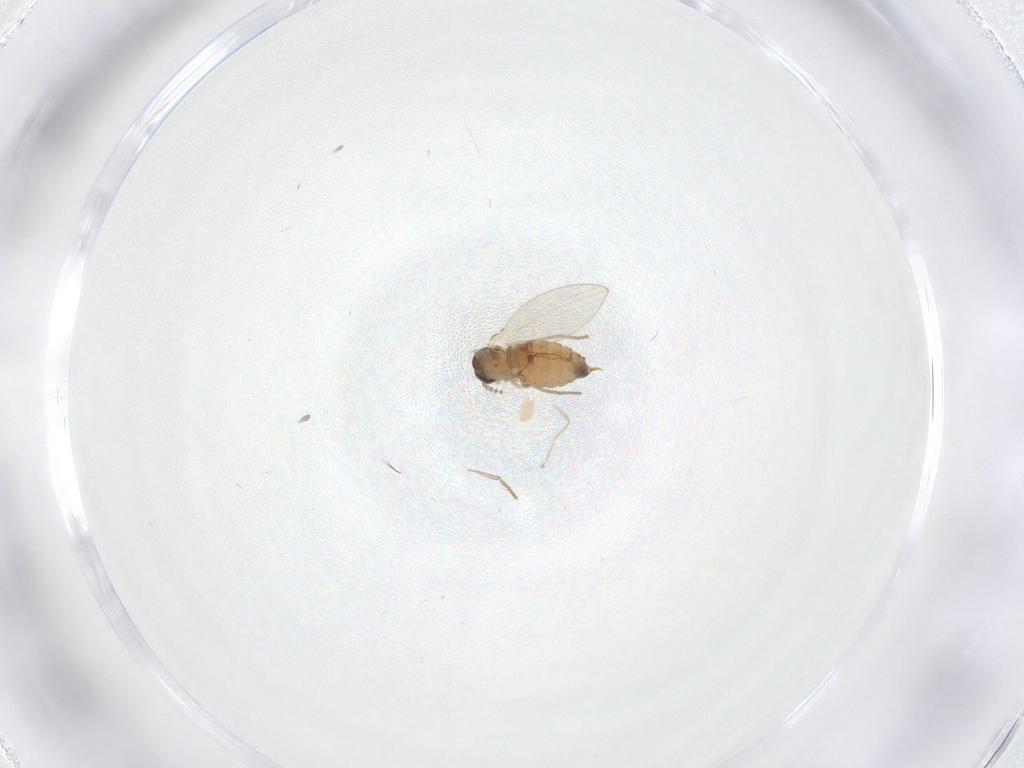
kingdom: Animalia
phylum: Arthropoda
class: Insecta
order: Diptera
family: Psychodidae
